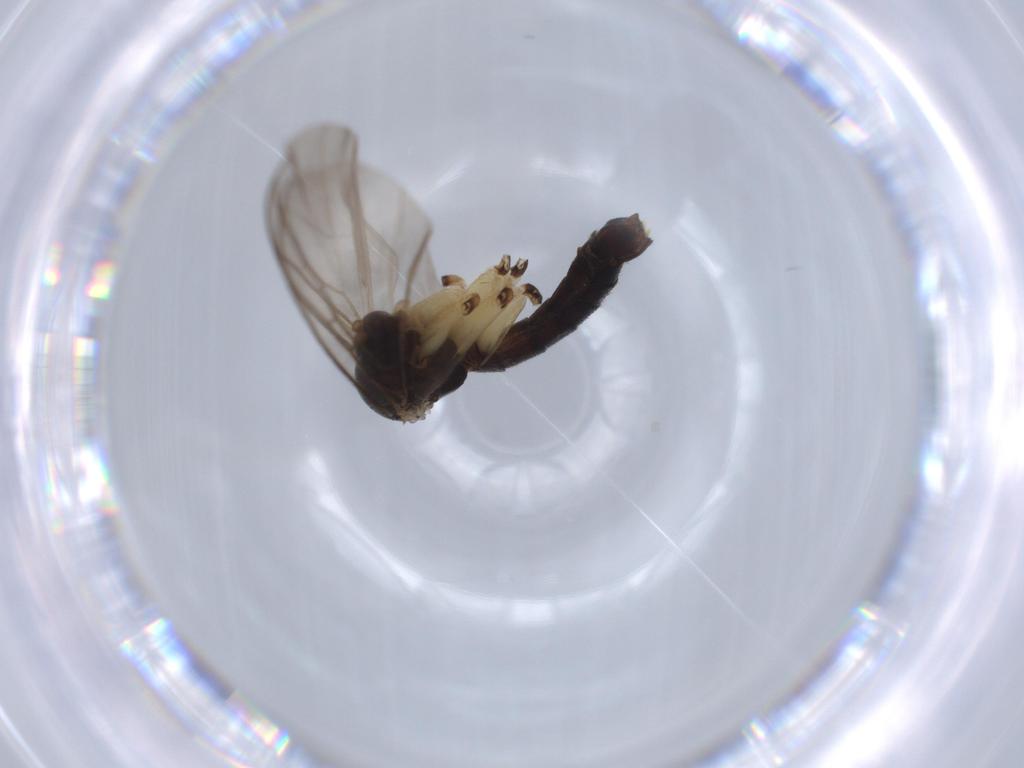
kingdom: Animalia
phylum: Arthropoda
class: Insecta
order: Diptera
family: Mycetophilidae
